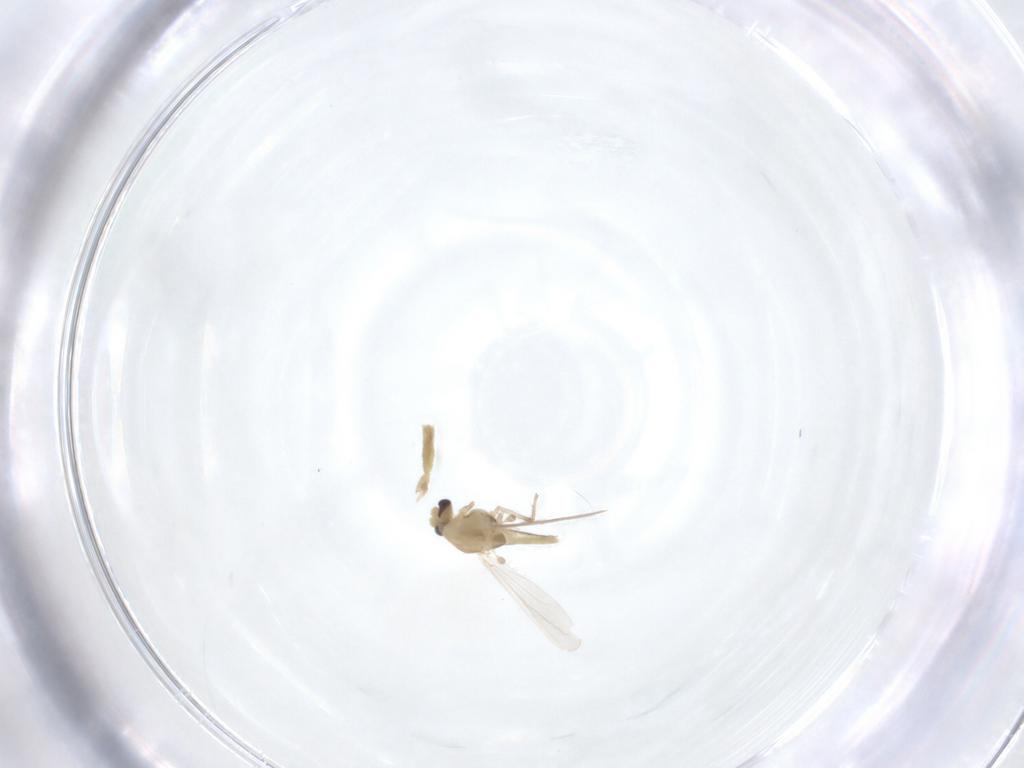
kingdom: Animalia
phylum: Arthropoda
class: Insecta
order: Diptera
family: Chironomidae
